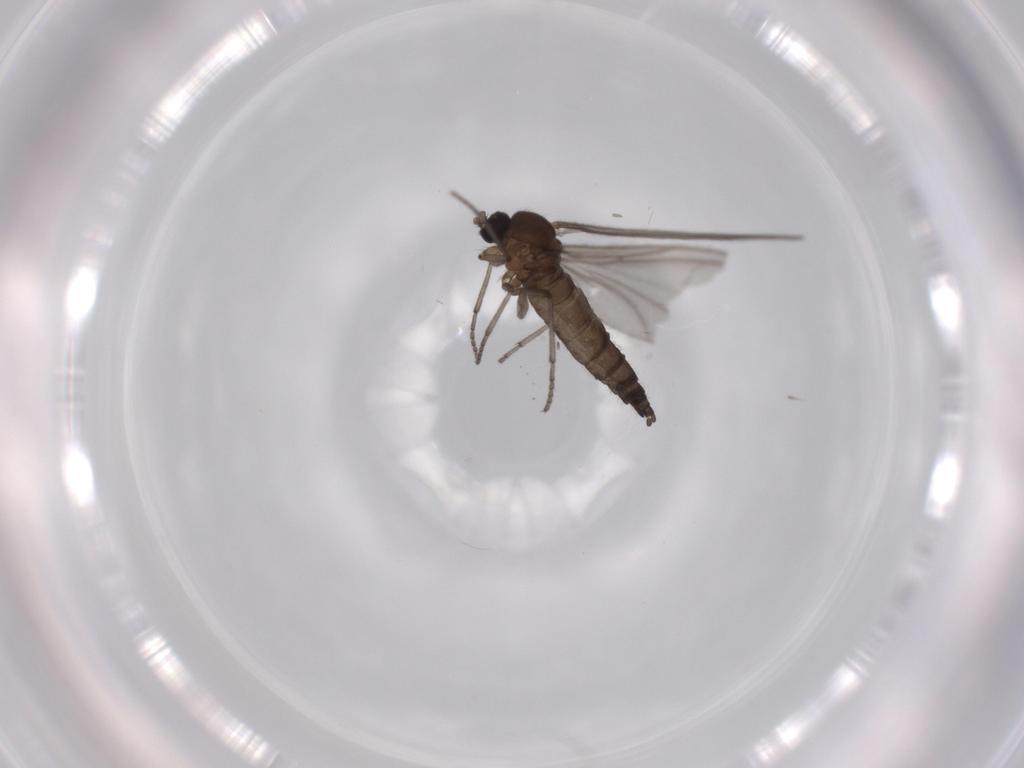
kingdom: Animalia
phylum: Arthropoda
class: Insecta
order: Diptera
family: Sciaridae
